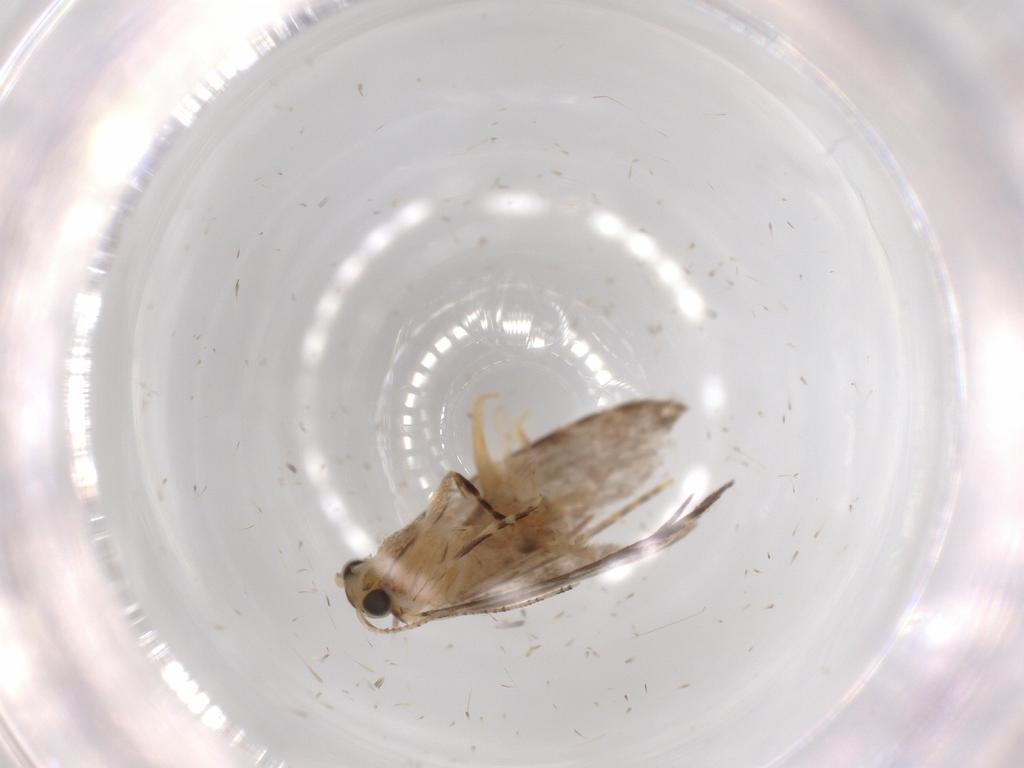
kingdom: Animalia
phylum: Arthropoda
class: Insecta
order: Lepidoptera
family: Tineidae
